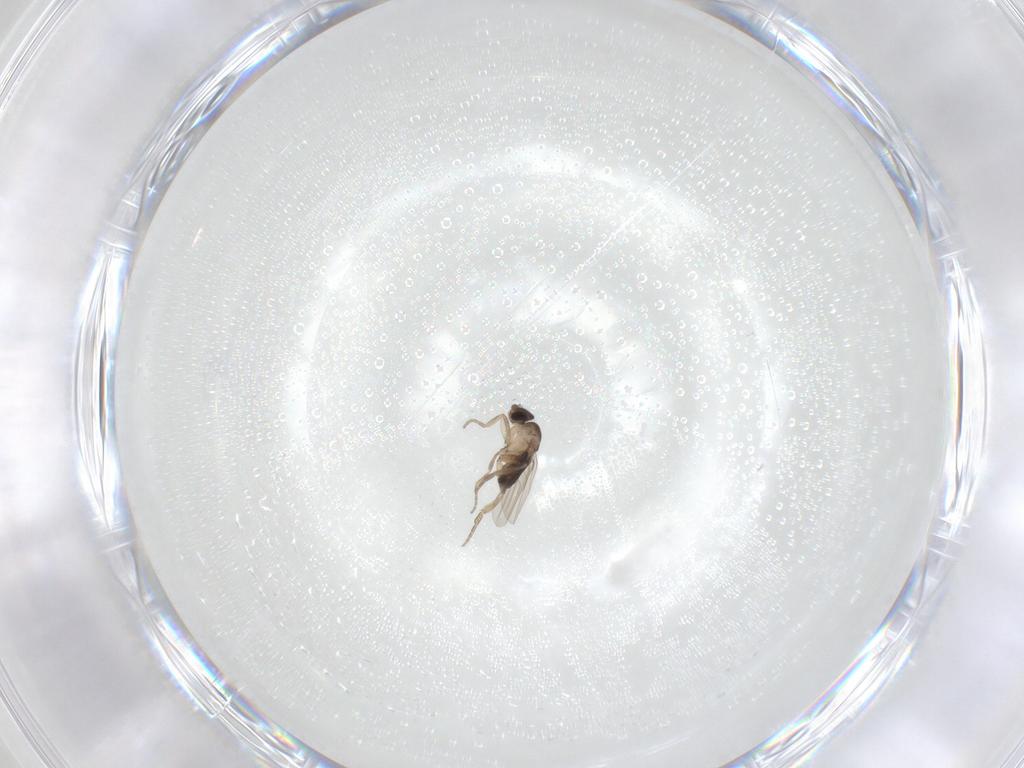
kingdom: Animalia
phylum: Arthropoda
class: Insecta
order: Diptera
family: Phoridae
